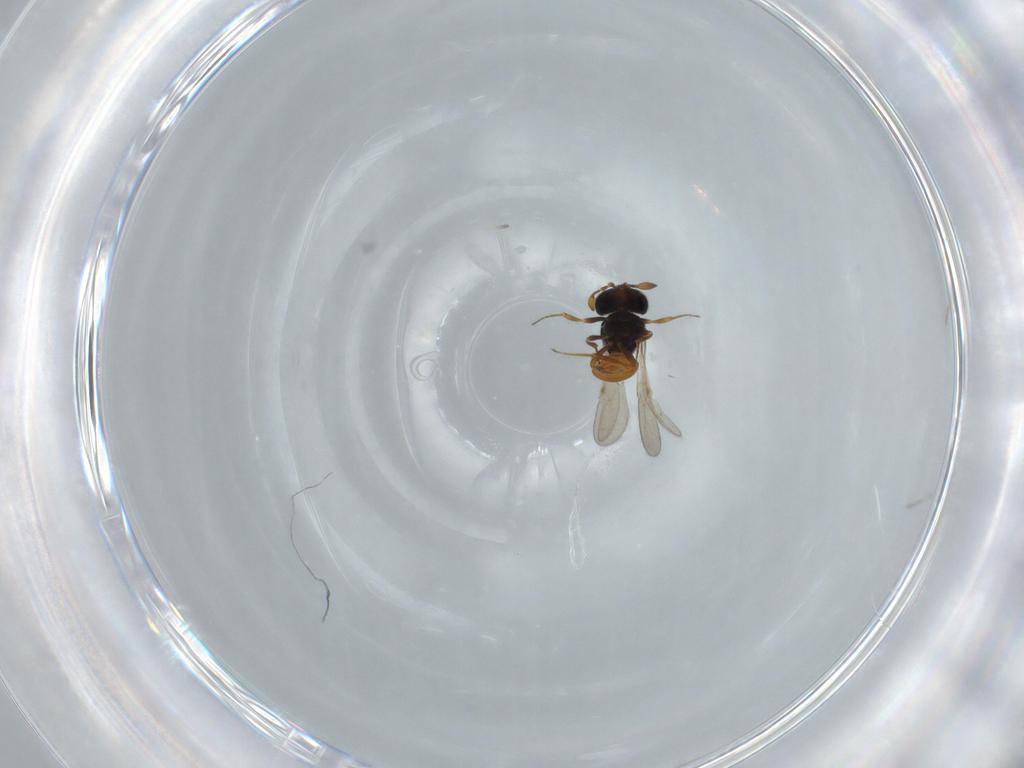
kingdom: Animalia
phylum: Arthropoda
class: Insecta
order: Hymenoptera
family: Scelionidae
